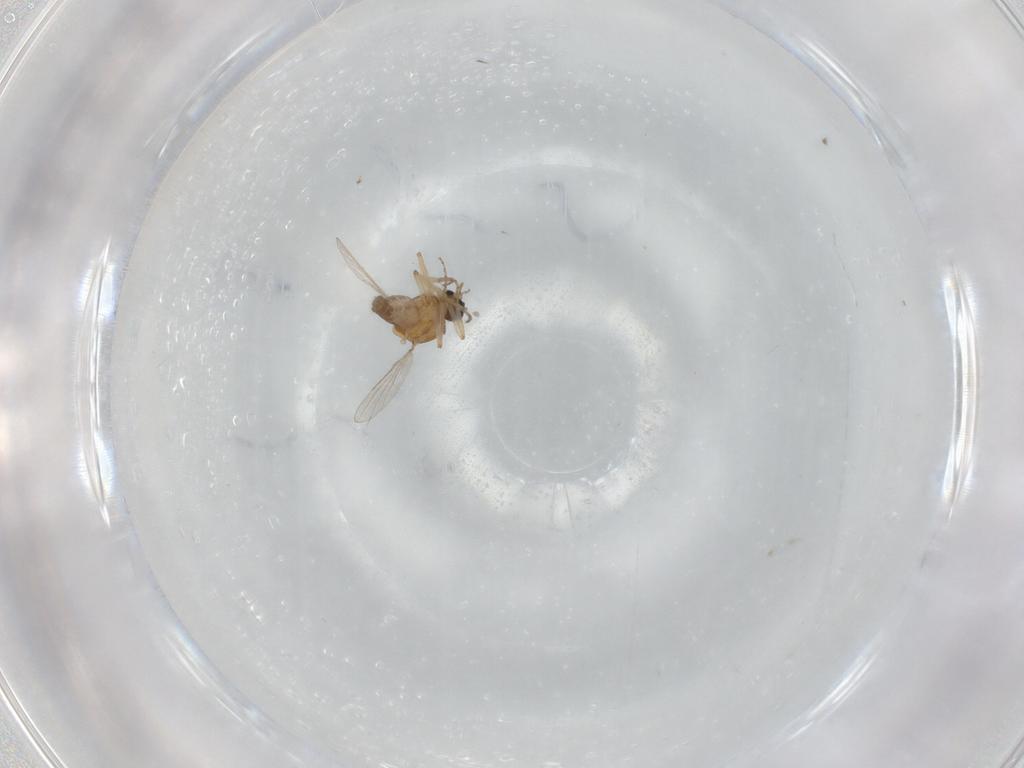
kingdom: Animalia
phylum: Arthropoda
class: Insecta
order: Diptera
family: Ceratopogonidae
